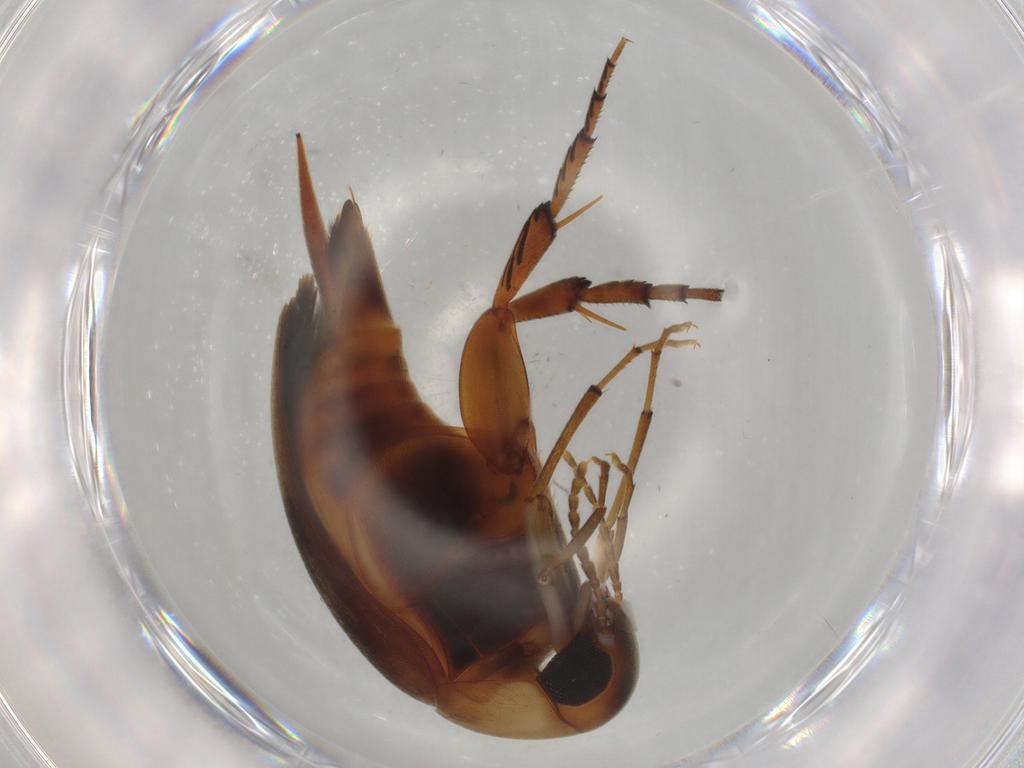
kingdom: Animalia
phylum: Arthropoda
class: Insecta
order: Coleoptera
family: Mordellidae
